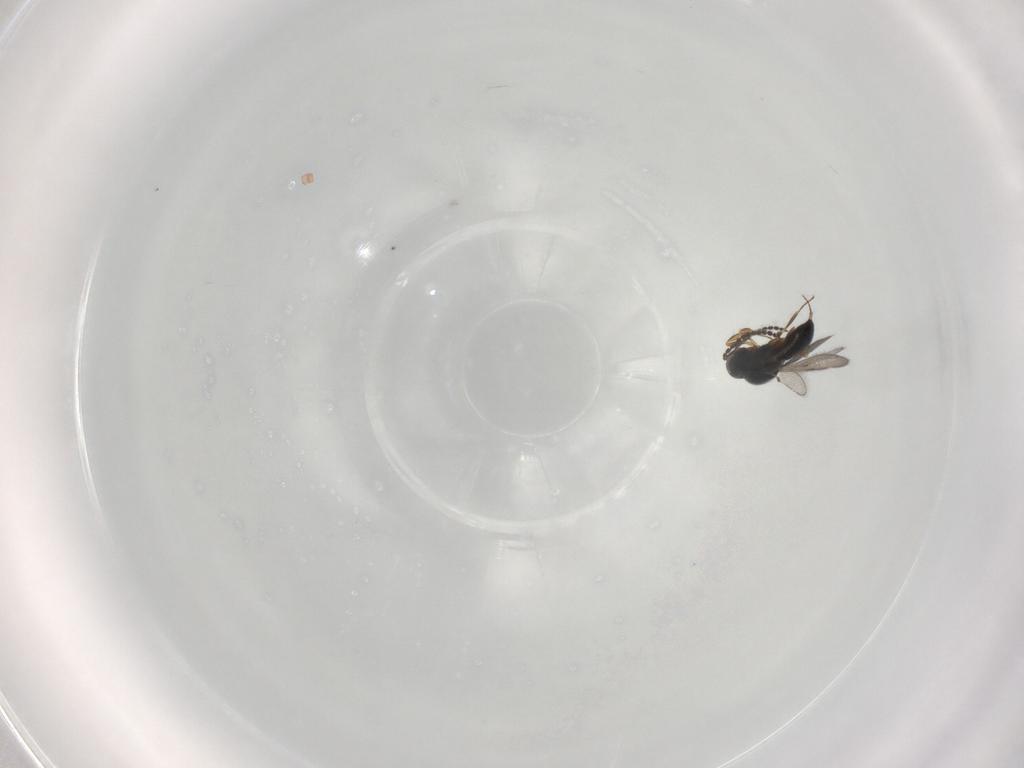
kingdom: Animalia
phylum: Arthropoda
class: Insecta
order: Hymenoptera
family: Scelionidae
